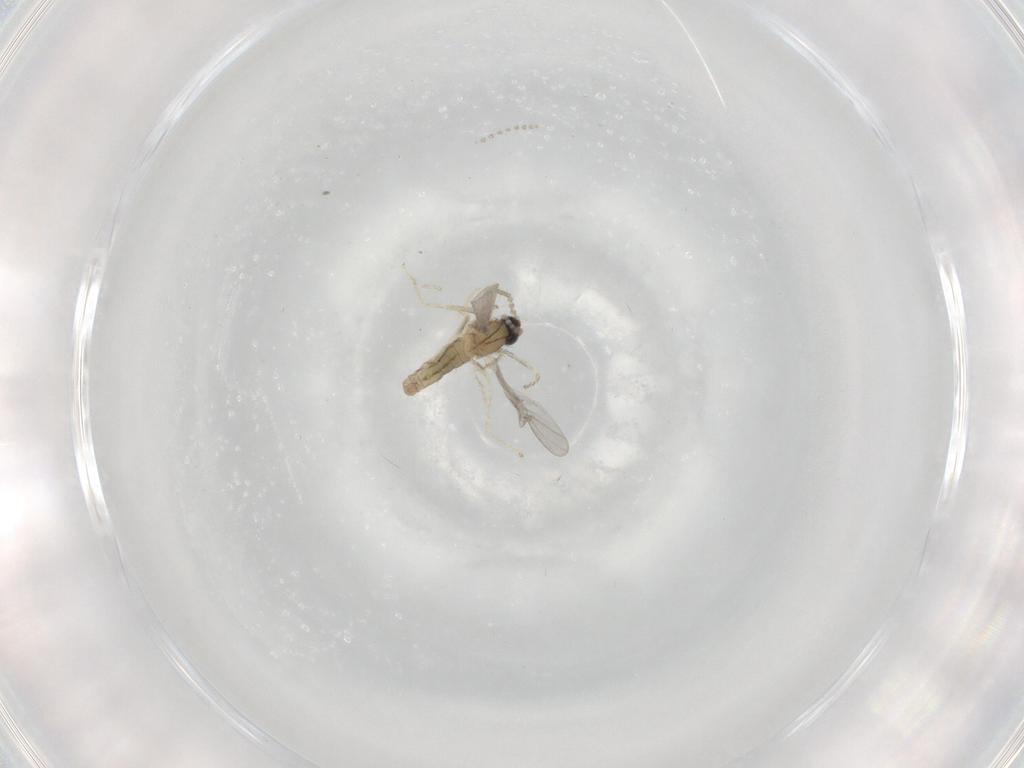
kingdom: Animalia
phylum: Arthropoda
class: Insecta
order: Diptera
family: Cecidomyiidae
